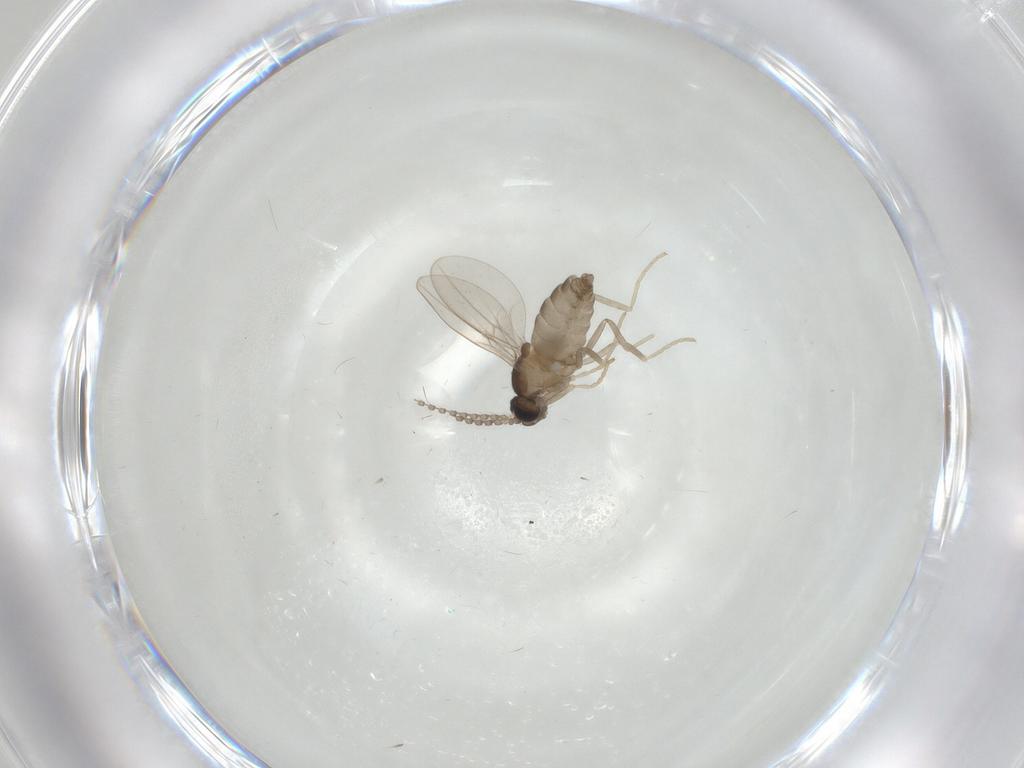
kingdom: Animalia
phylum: Arthropoda
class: Insecta
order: Diptera
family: Cecidomyiidae
